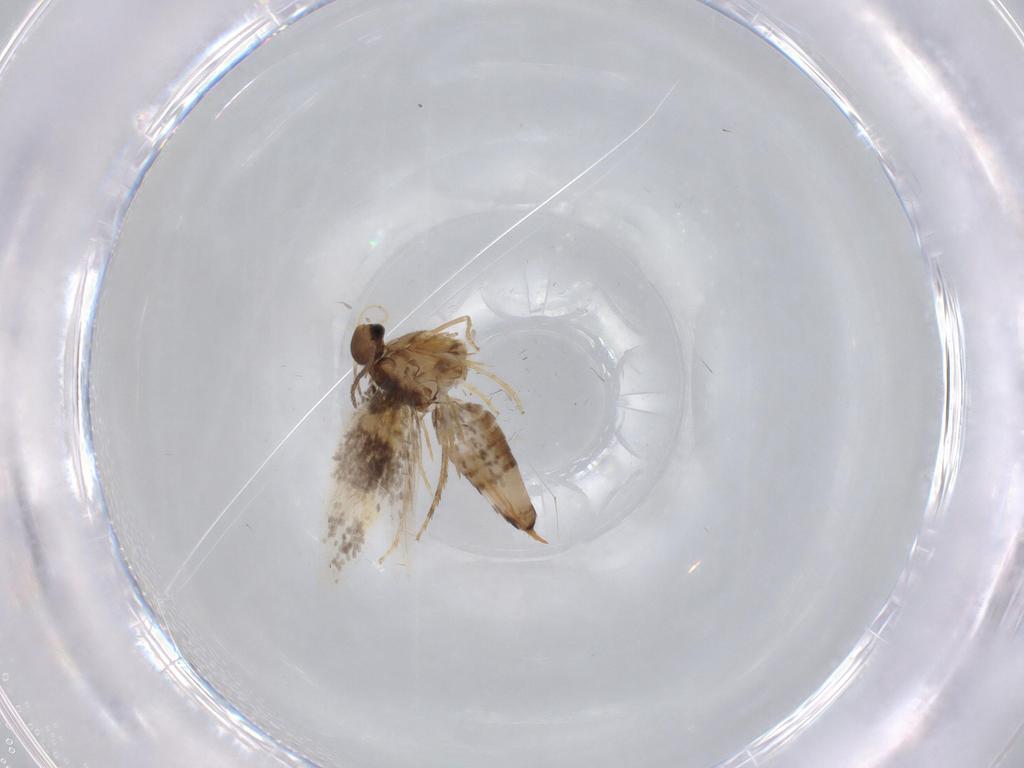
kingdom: Animalia
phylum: Arthropoda
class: Insecta
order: Lepidoptera
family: Heliozelidae
